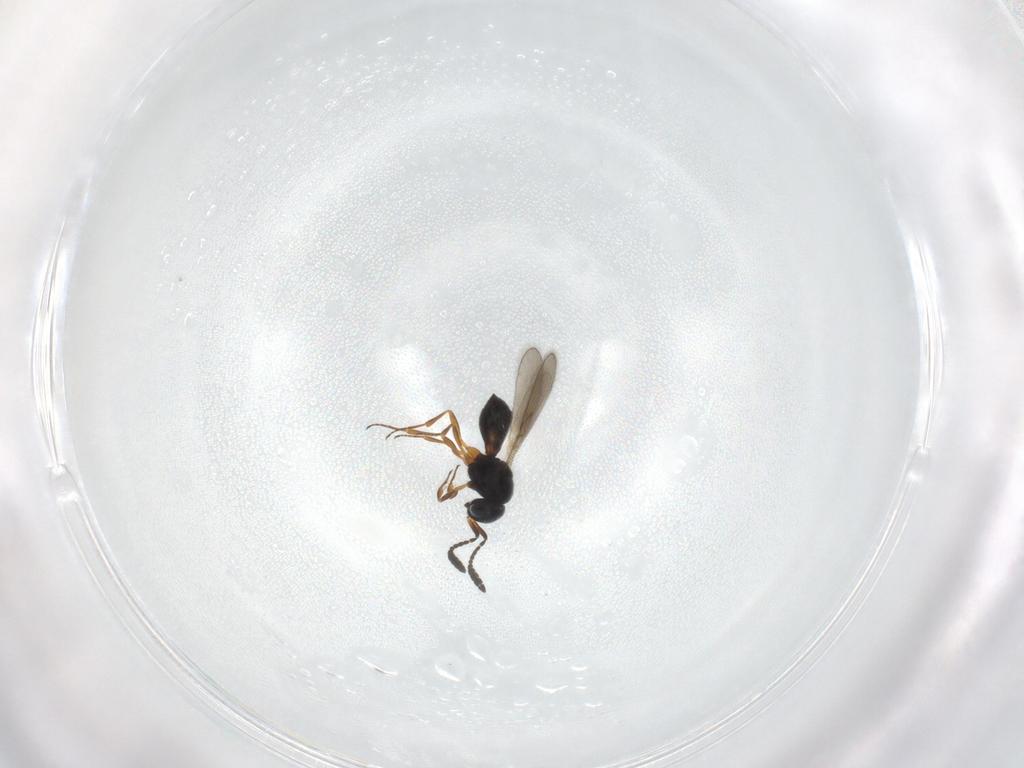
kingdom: Animalia
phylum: Arthropoda
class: Insecta
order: Hymenoptera
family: Scelionidae
